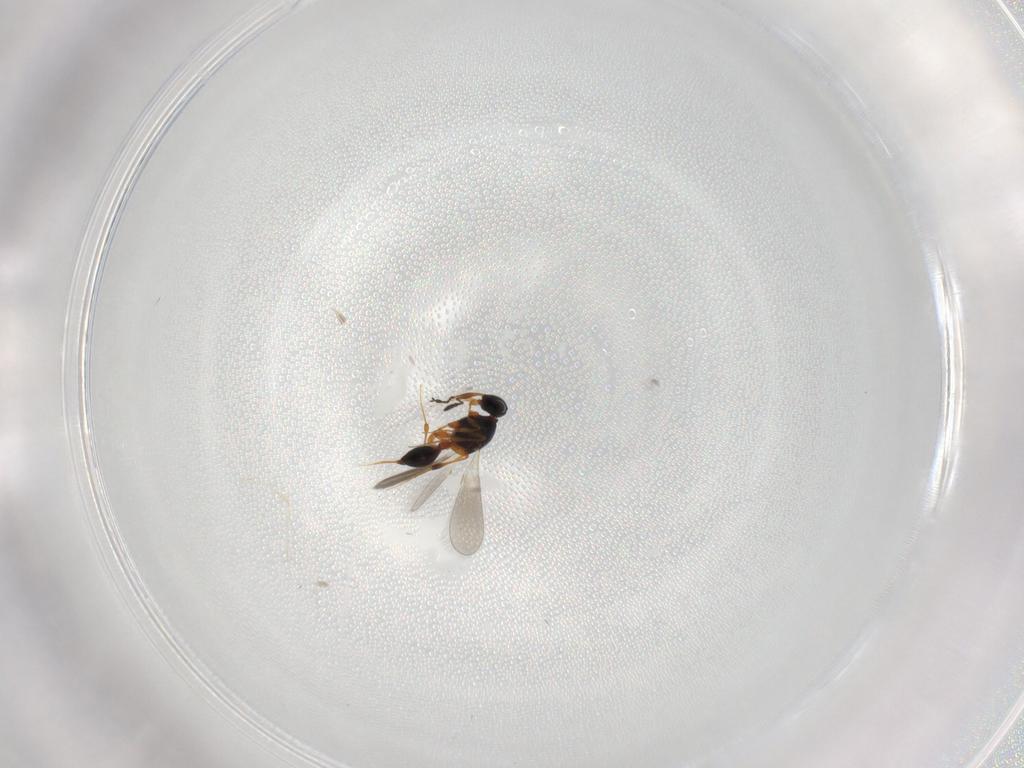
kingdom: Animalia
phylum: Arthropoda
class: Insecta
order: Hymenoptera
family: Platygastridae
